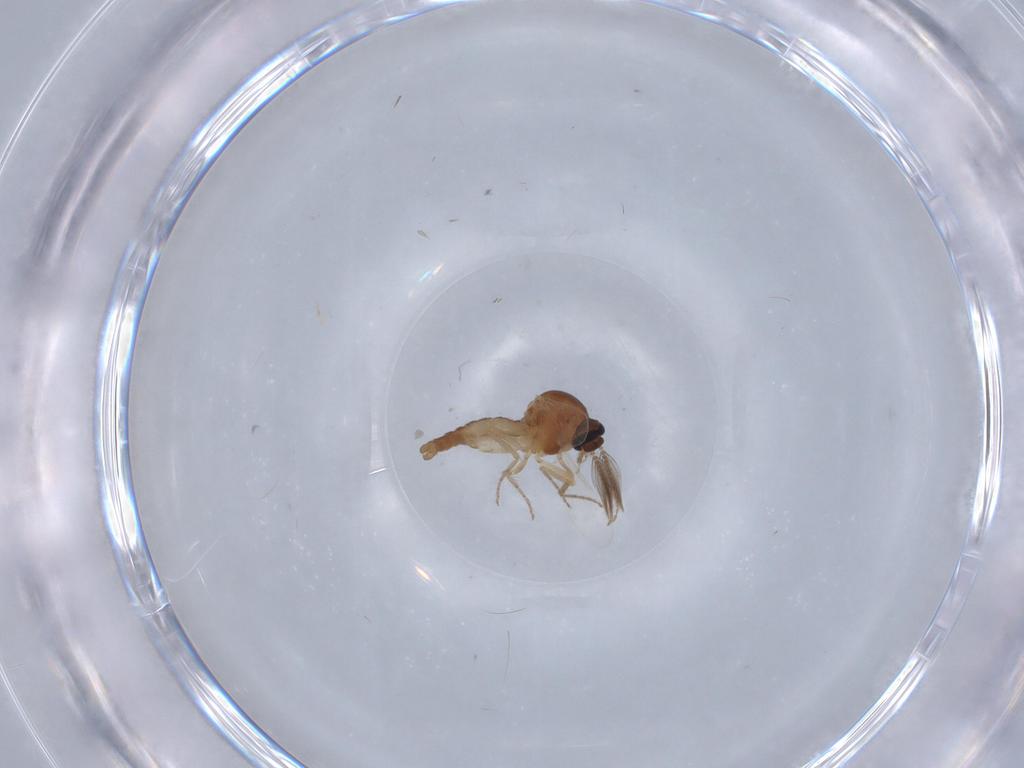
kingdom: Animalia
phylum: Arthropoda
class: Insecta
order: Diptera
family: Ceratopogonidae
